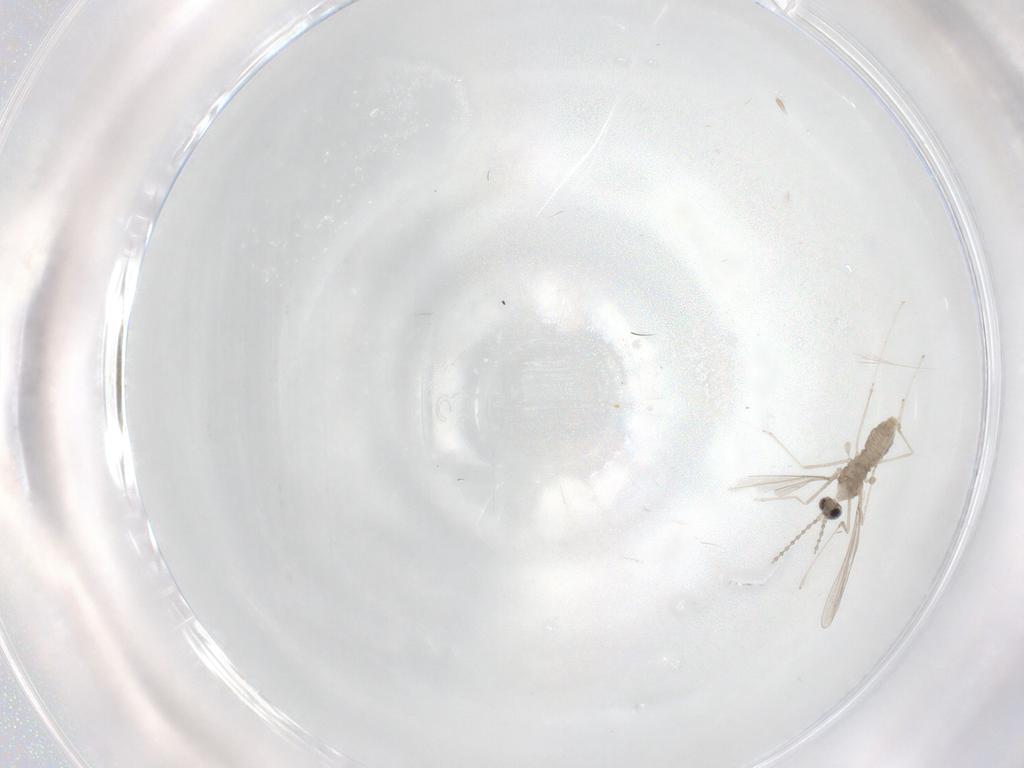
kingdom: Animalia
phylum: Arthropoda
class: Insecta
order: Diptera
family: Cecidomyiidae
